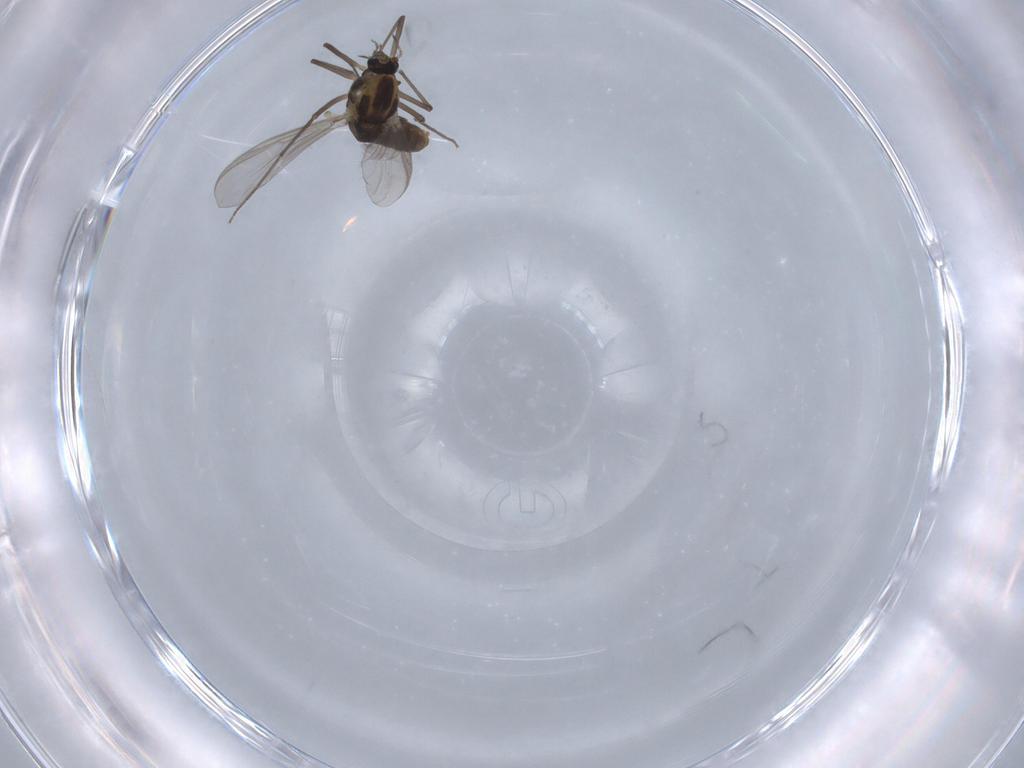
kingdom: Animalia
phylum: Arthropoda
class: Insecta
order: Diptera
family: Chironomidae
